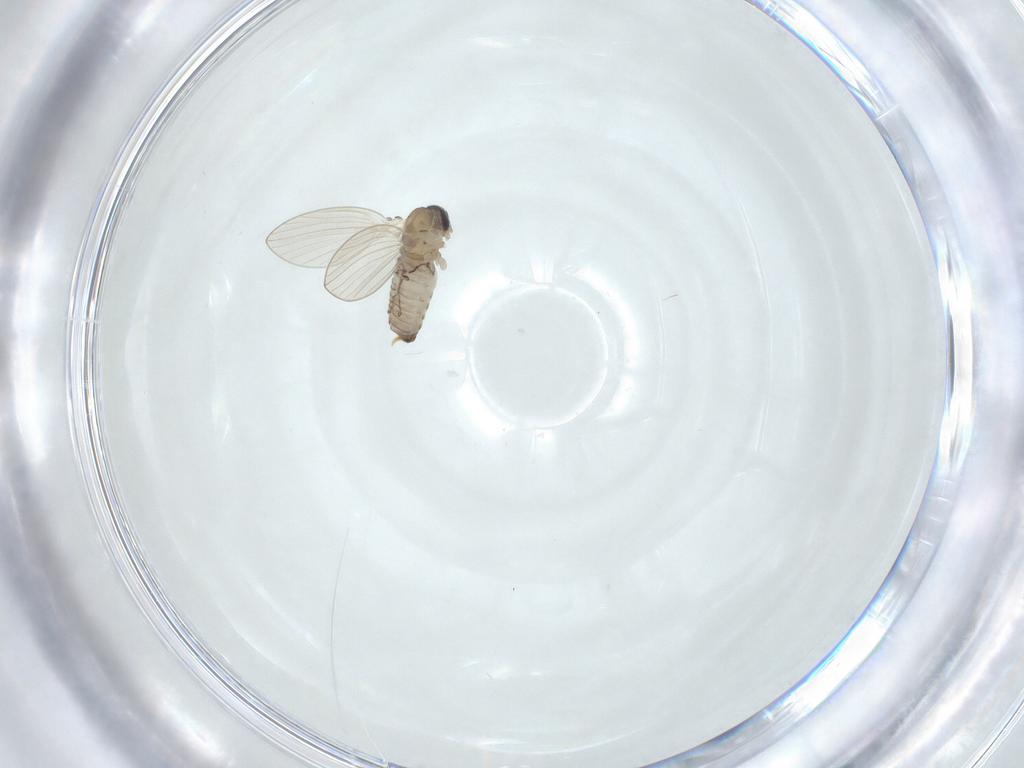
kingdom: Animalia
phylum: Arthropoda
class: Insecta
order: Diptera
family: Psychodidae
